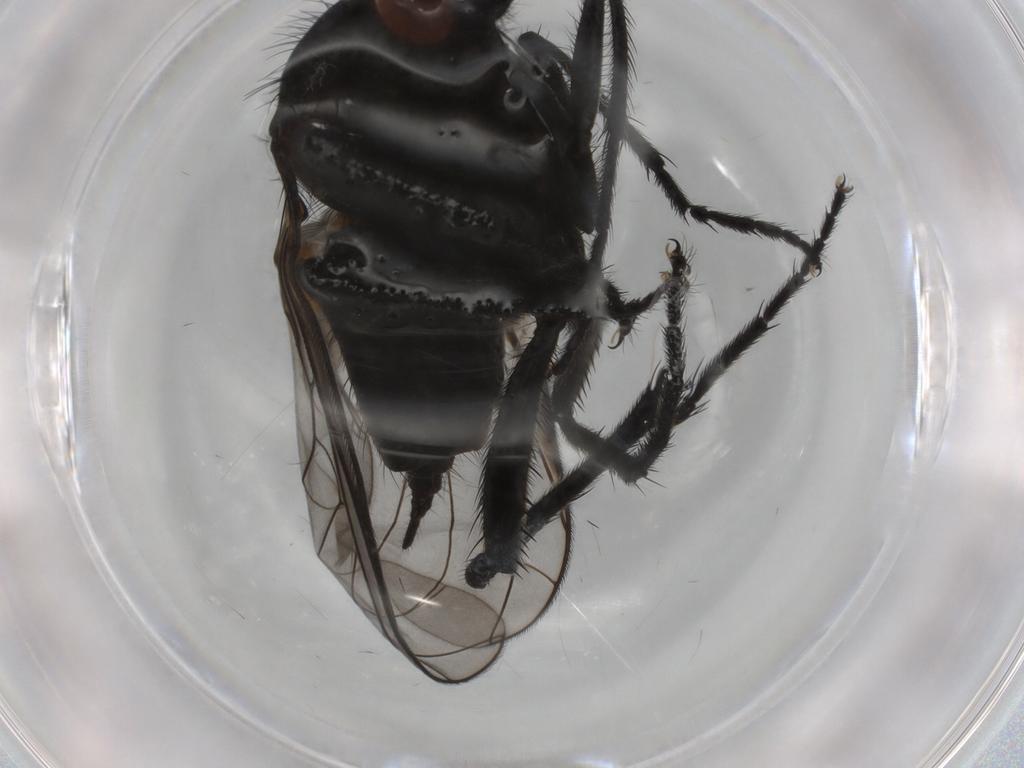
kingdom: Animalia
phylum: Arthropoda
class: Insecta
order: Diptera
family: Empididae
